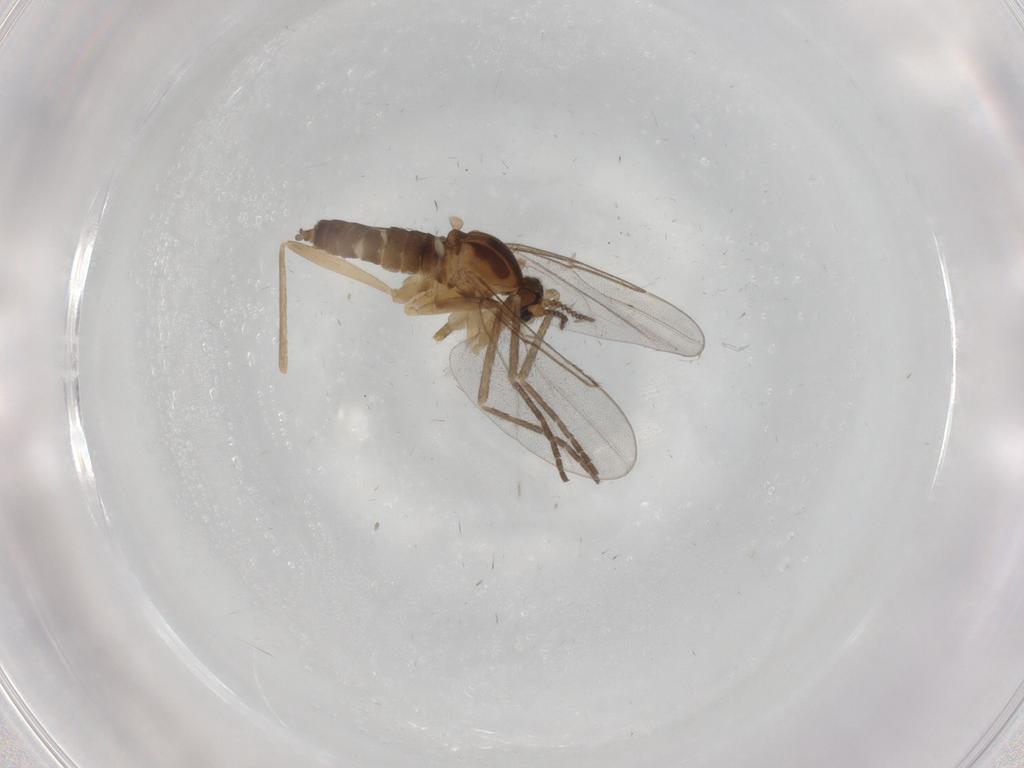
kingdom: Animalia
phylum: Arthropoda
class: Insecta
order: Diptera
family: Cecidomyiidae
